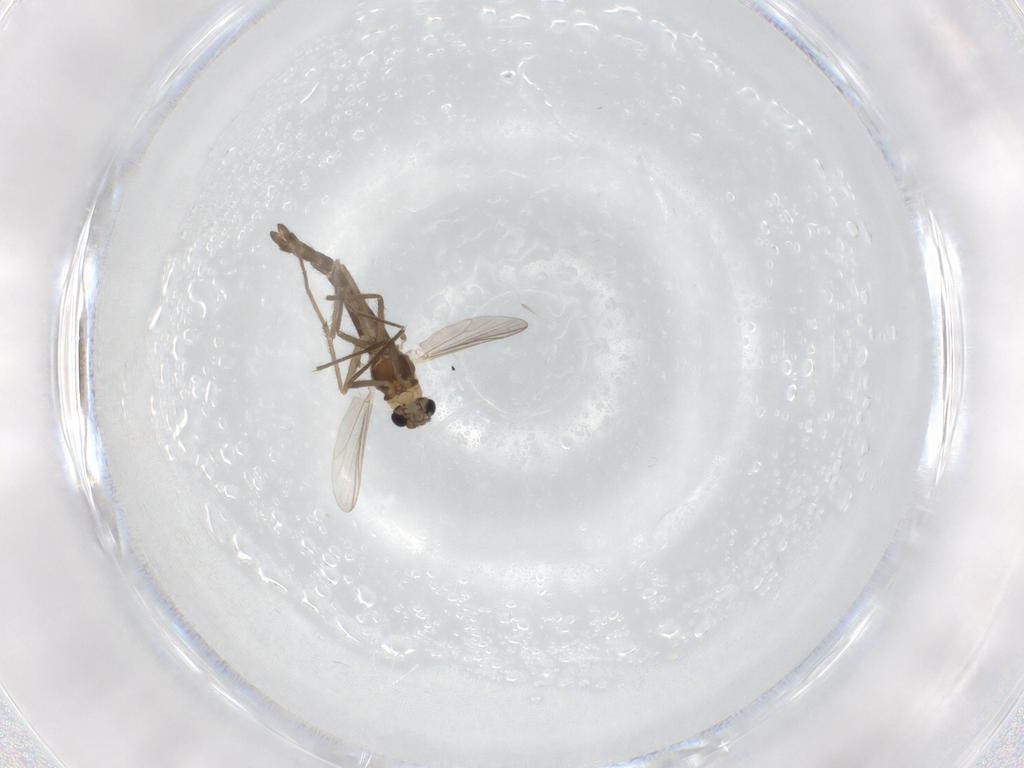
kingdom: Animalia
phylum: Arthropoda
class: Insecta
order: Diptera
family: Chironomidae
